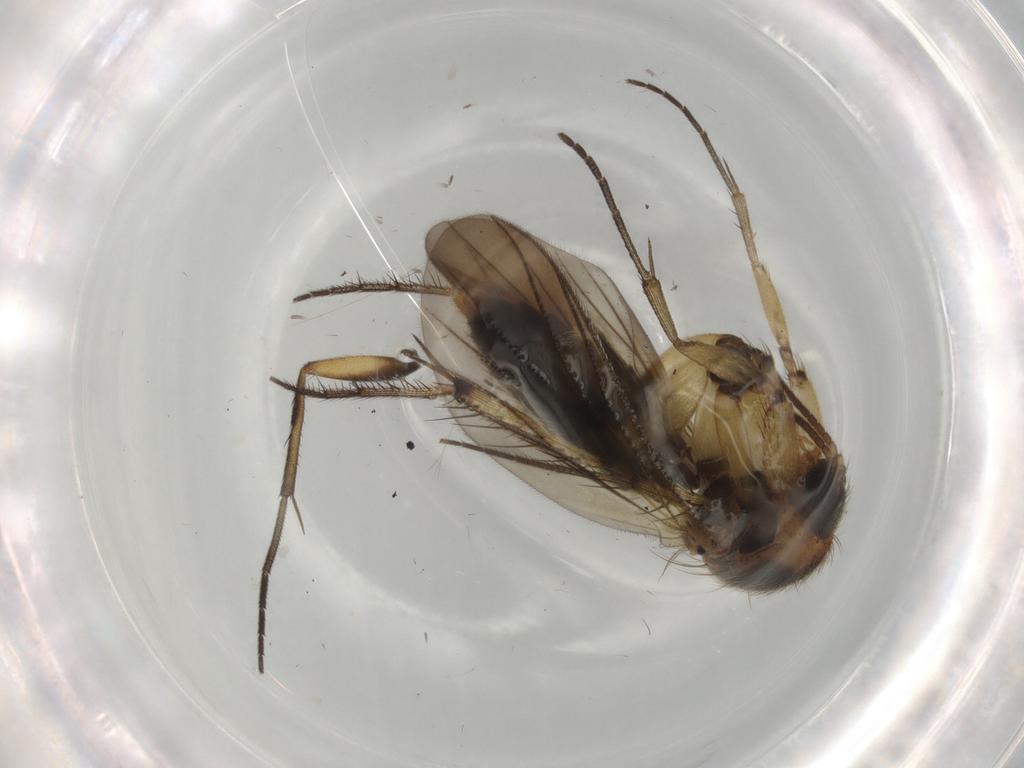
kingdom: Animalia
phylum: Arthropoda
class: Insecta
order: Diptera
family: Mycetophilidae
